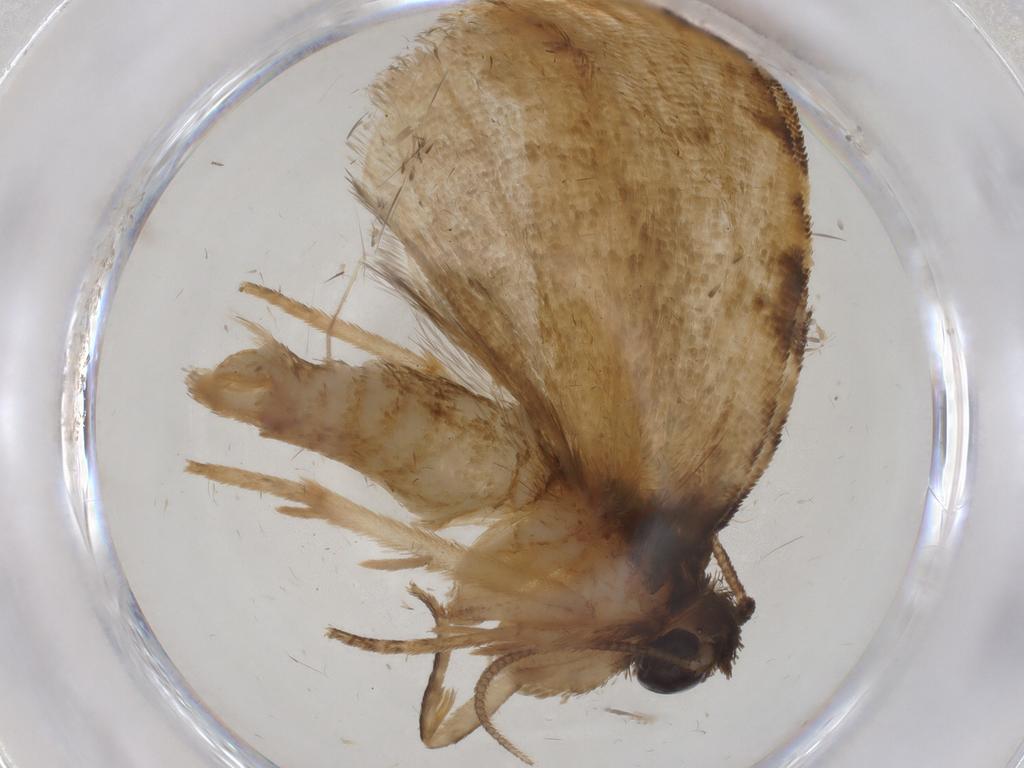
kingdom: Animalia
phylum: Arthropoda
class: Insecta
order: Lepidoptera
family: Tortricidae
